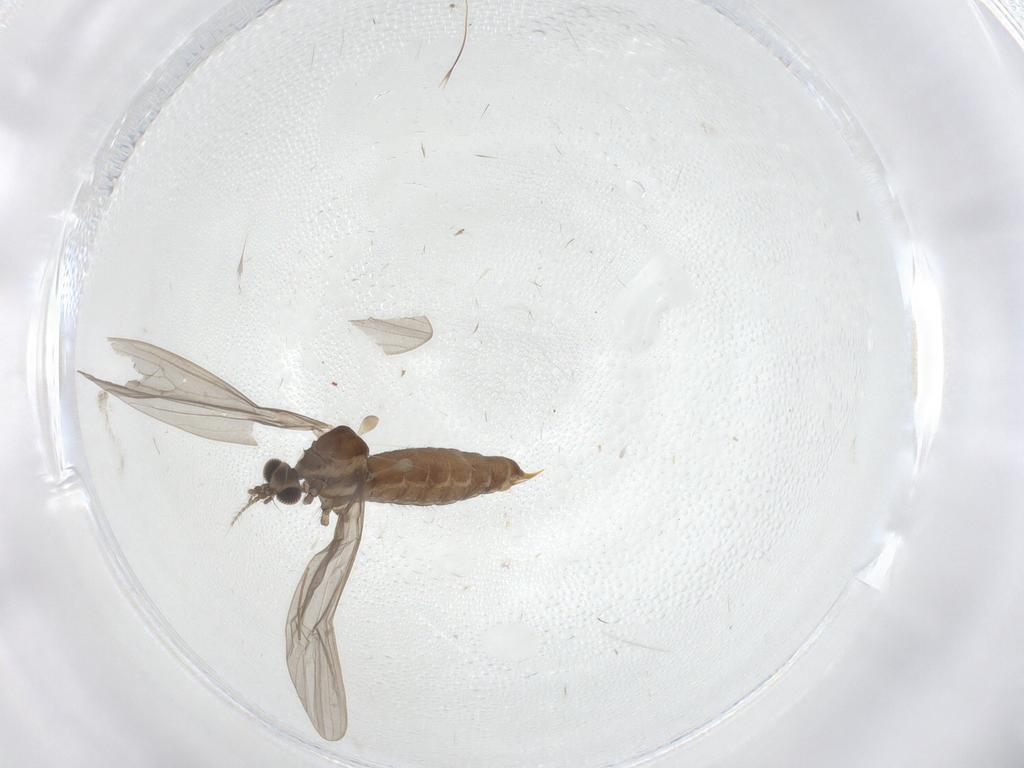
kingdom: Animalia
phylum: Arthropoda
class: Insecta
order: Diptera
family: Limoniidae
